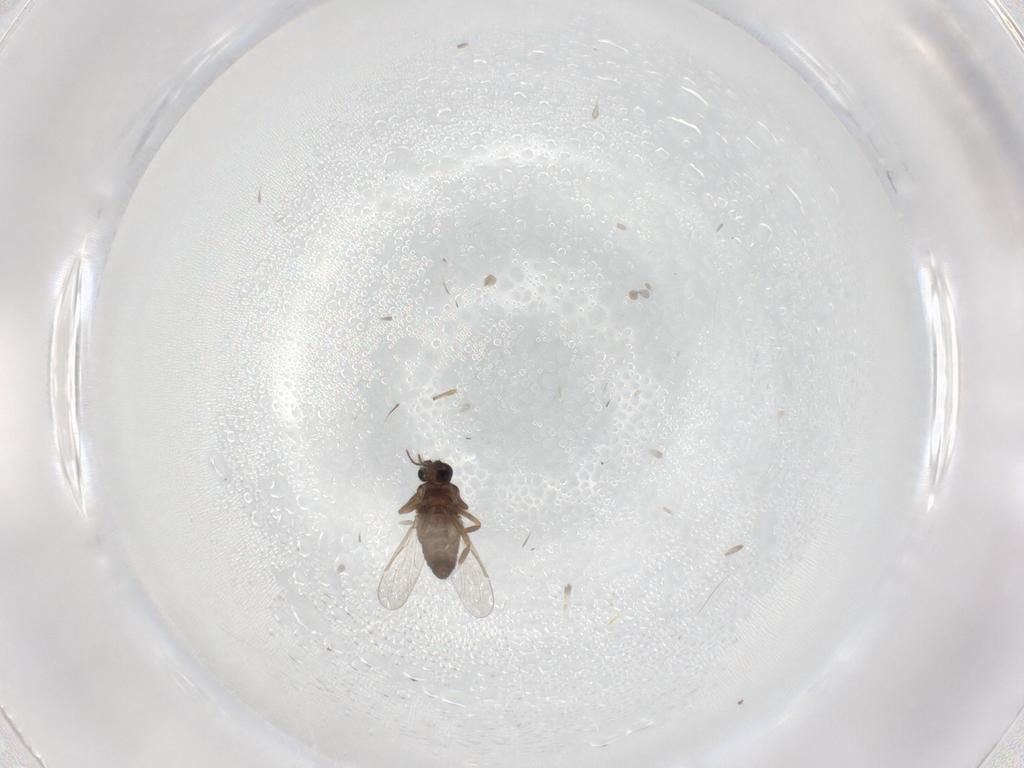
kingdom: Animalia
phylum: Arthropoda
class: Insecta
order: Diptera
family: Ceratopogonidae
